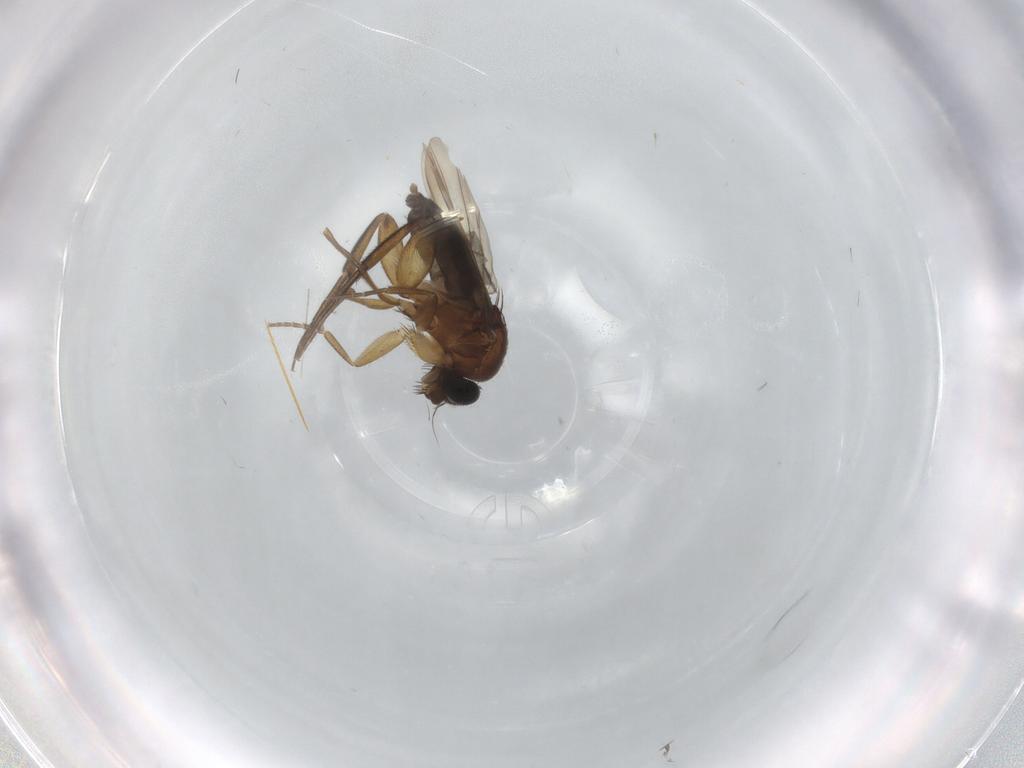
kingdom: Animalia
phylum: Arthropoda
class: Insecta
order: Diptera
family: Phoridae
